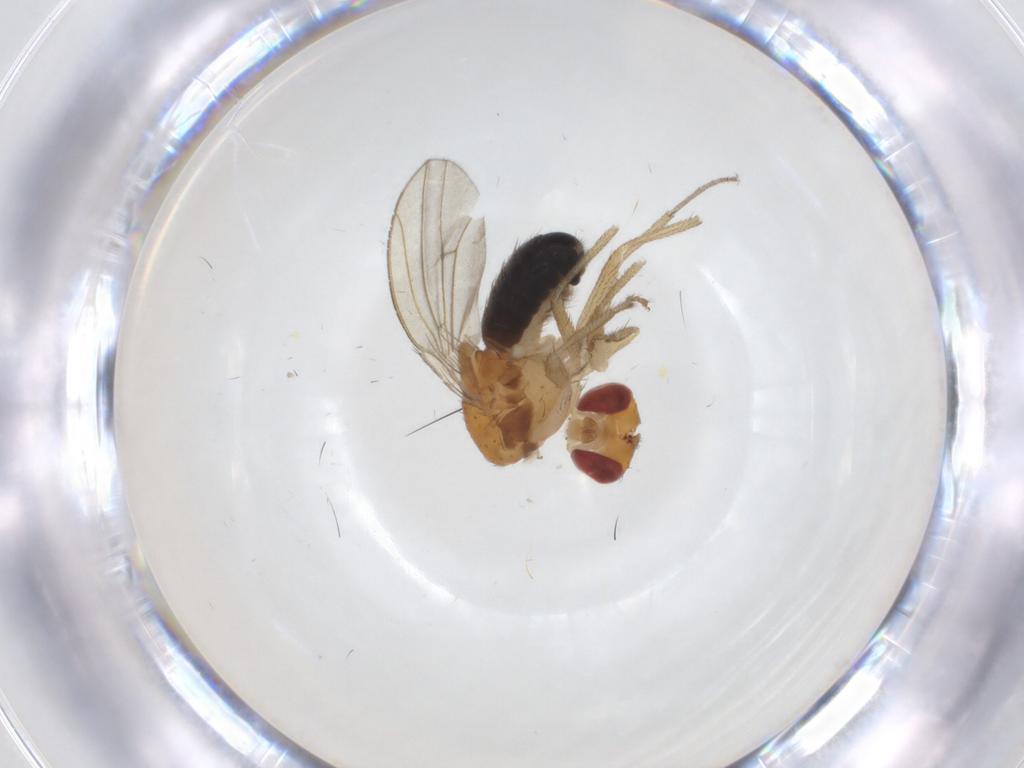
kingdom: Animalia
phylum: Arthropoda
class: Insecta
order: Diptera
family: Drosophilidae
